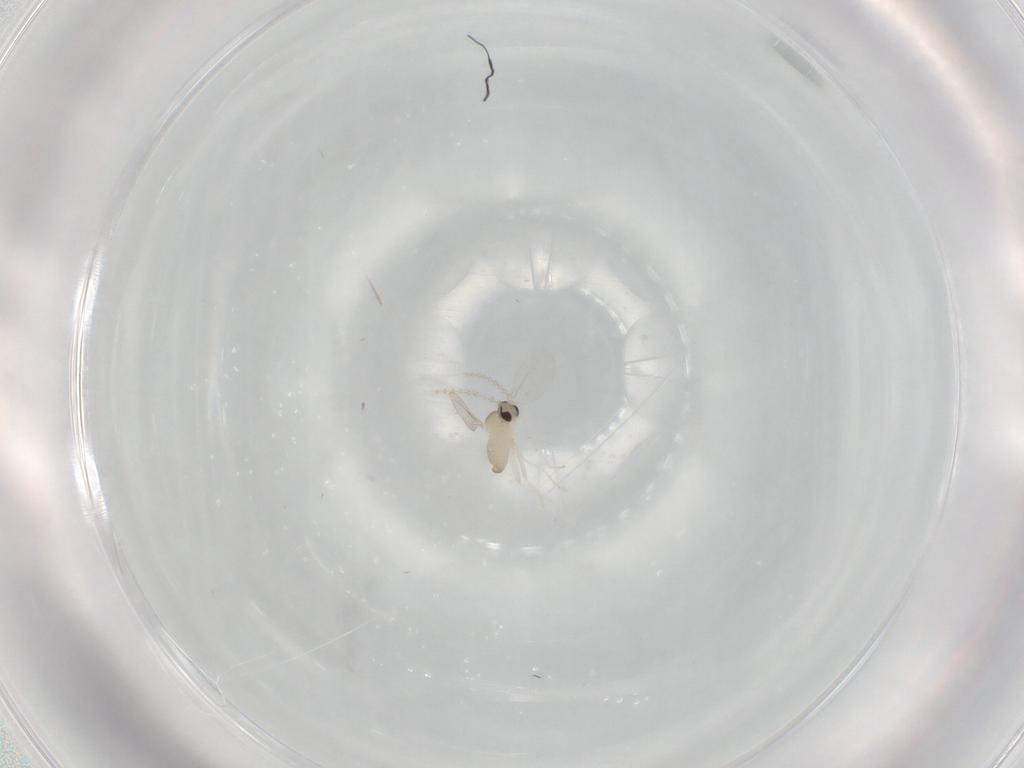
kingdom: Animalia
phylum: Arthropoda
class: Insecta
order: Diptera
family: Cecidomyiidae
